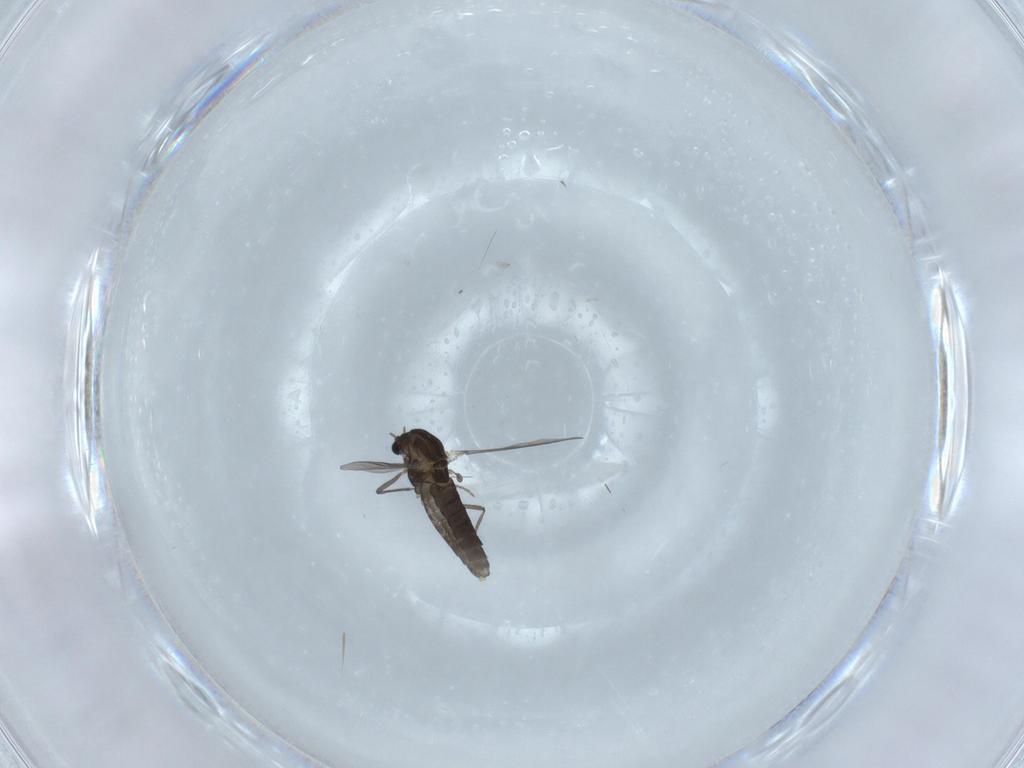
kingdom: Animalia
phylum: Arthropoda
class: Insecta
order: Diptera
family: Chironomidae
